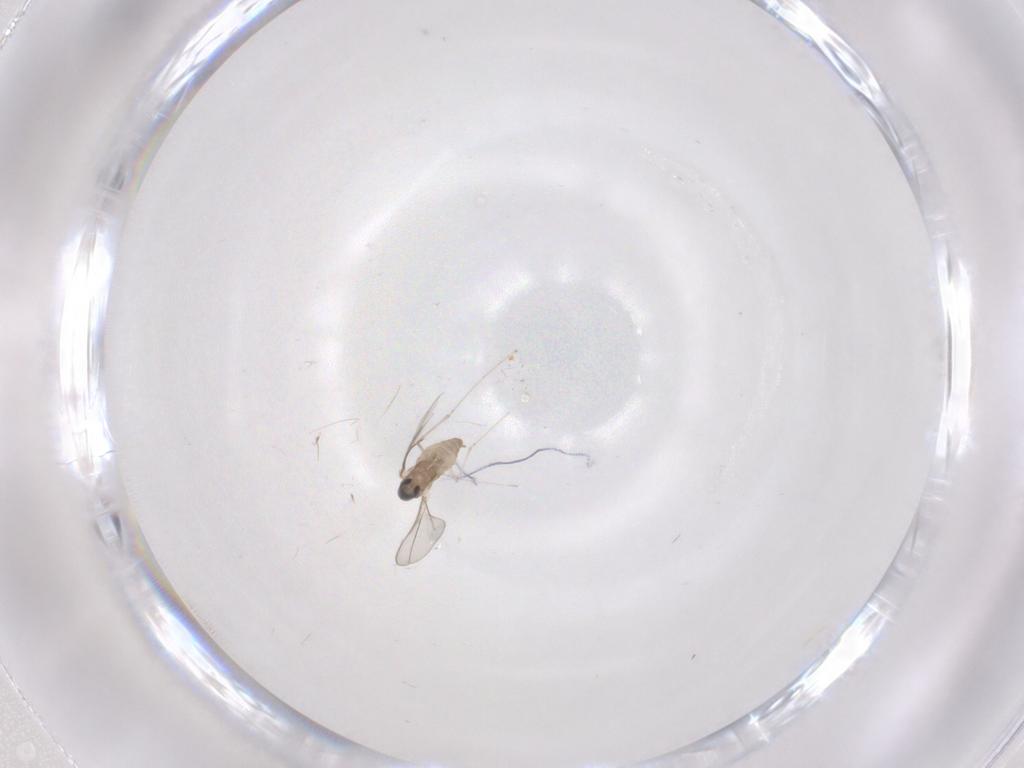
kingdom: Animalia
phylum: Arthropoda
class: Insecta
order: Diptera
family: Cecidomyiidae
